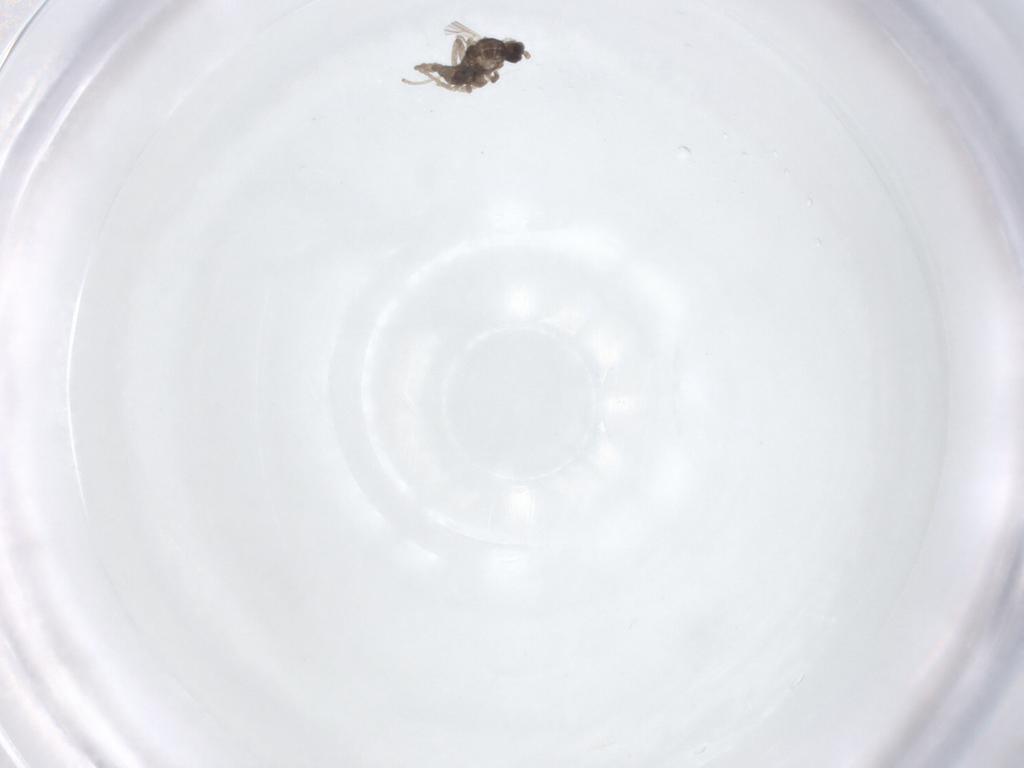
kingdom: Animalia
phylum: Arthropoda
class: Insecta
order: Diptera
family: Cecidomyiidae
